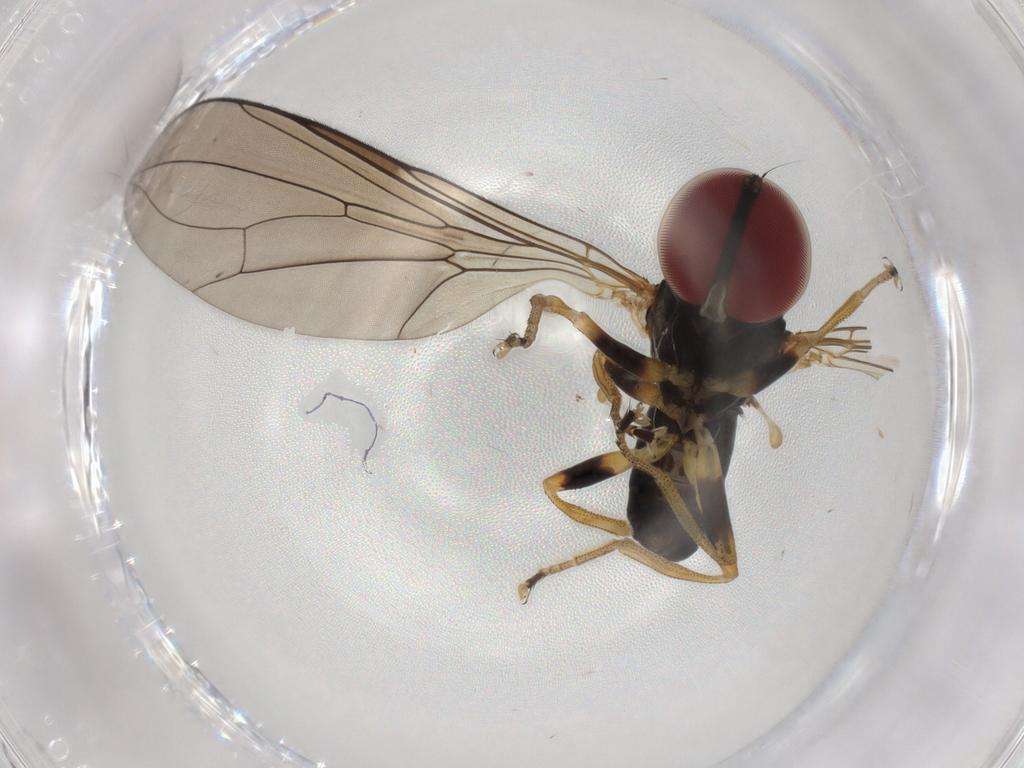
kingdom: Animalia
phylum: Arthropoda
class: Insecta
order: Diptera
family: Pipunculidae
